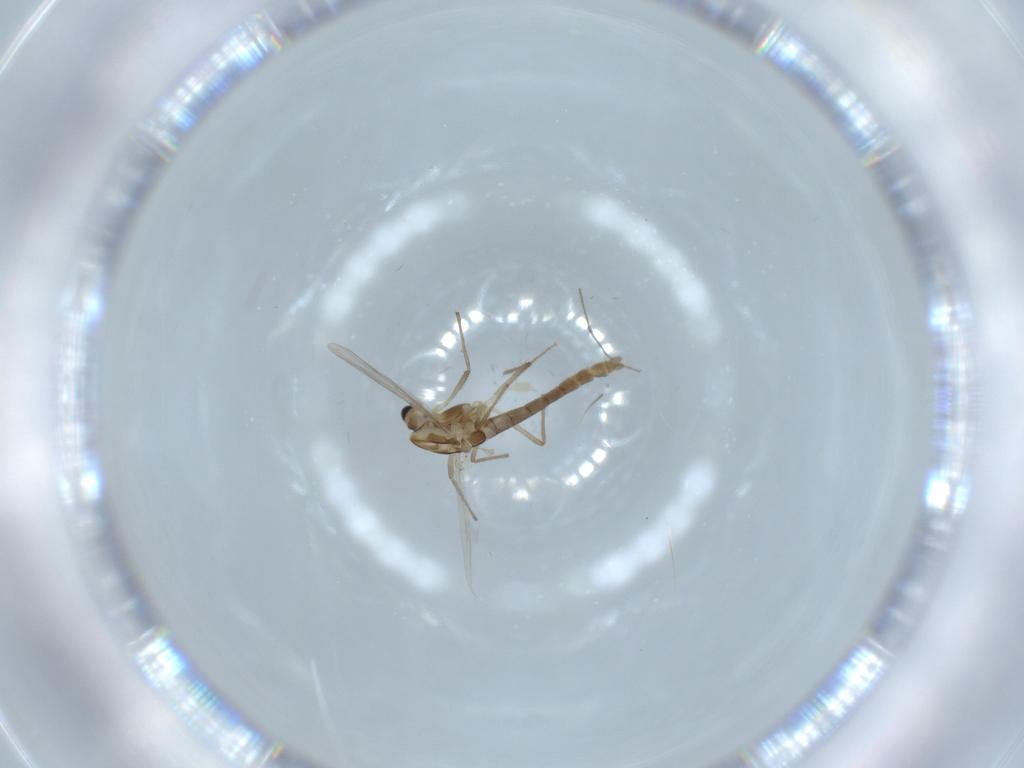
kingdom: Animalia
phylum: Arthropoda
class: Insecta
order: Diptera
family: Chironomidae
